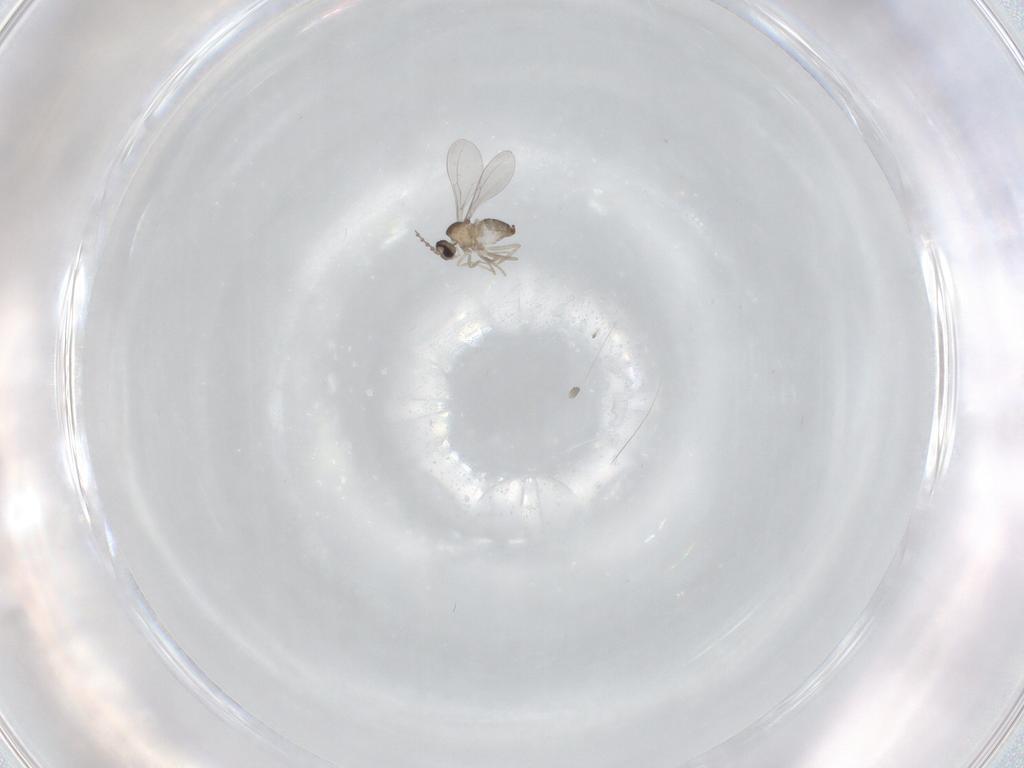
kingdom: Animalia
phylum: Arthropoda
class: Insecta
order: Diptera
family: Cecidomyiidae
